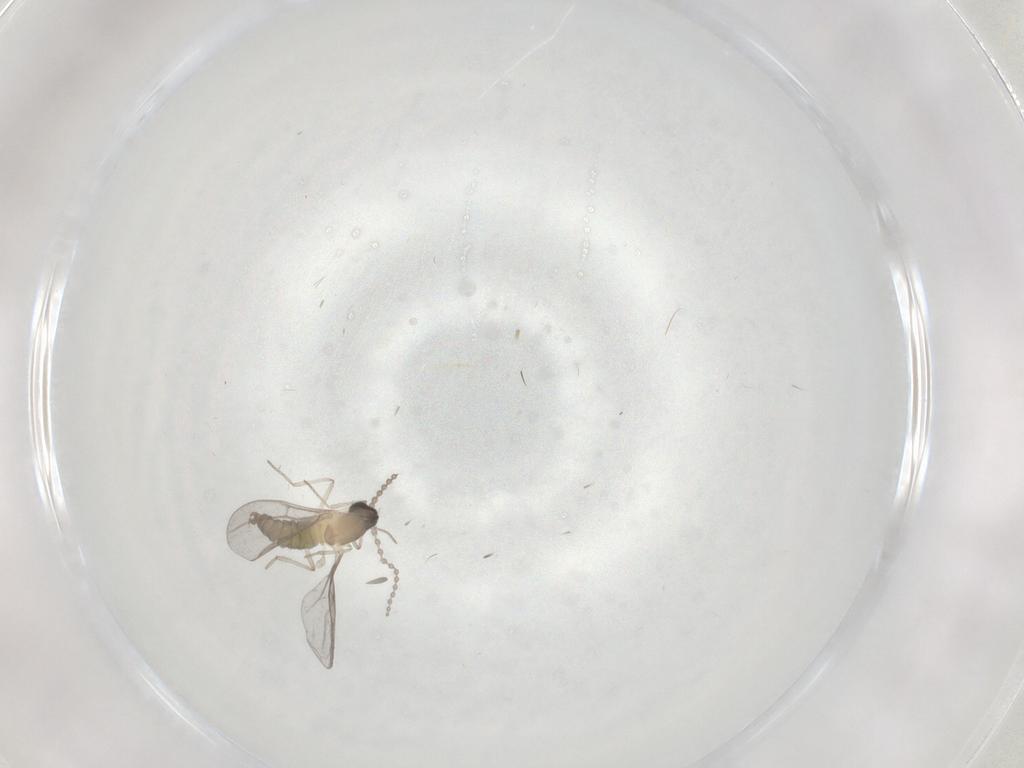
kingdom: Animalia
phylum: Arthropoda
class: Insecta
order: Diptera
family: Cecidomyiidae
